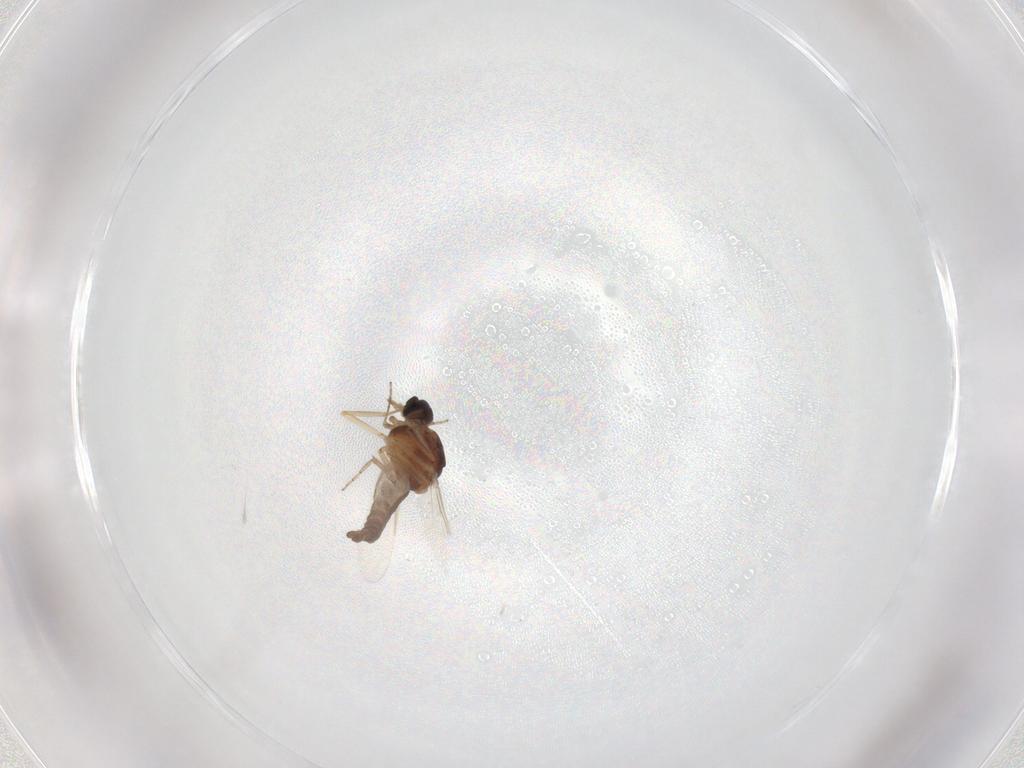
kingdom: Animalia
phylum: Arthropoda
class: Insecta
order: Diptera
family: Ceratopogonidae
